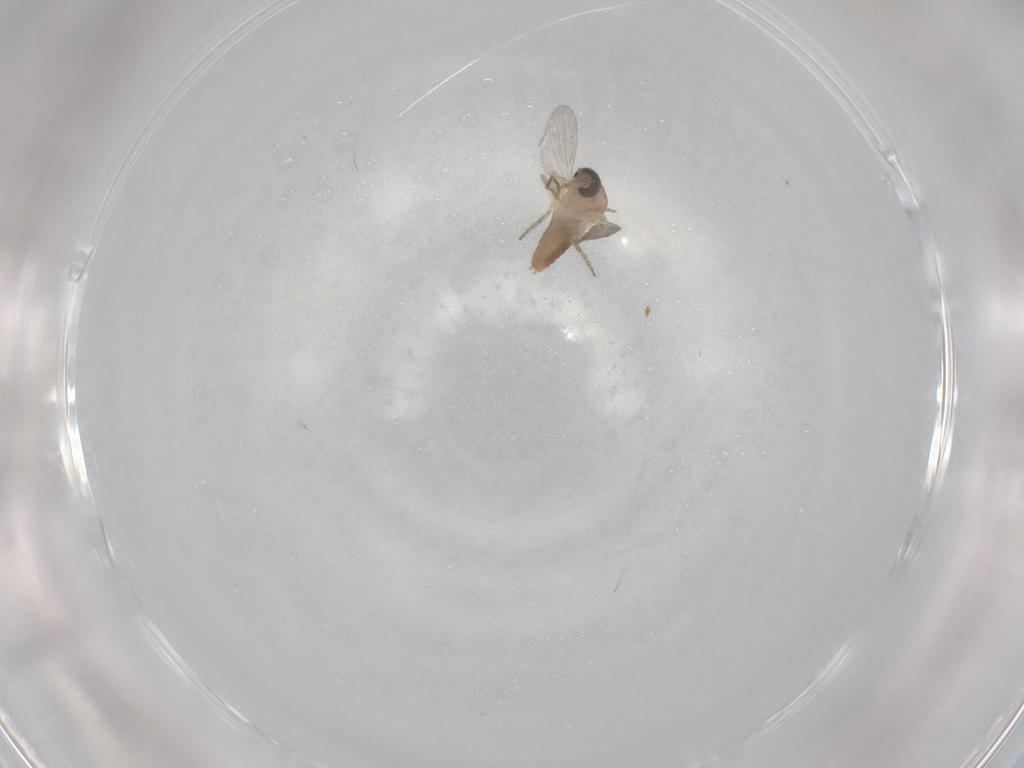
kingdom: Animalia
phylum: Arthropoda
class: Insecta
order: Diptera
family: Ceratopogonidae
